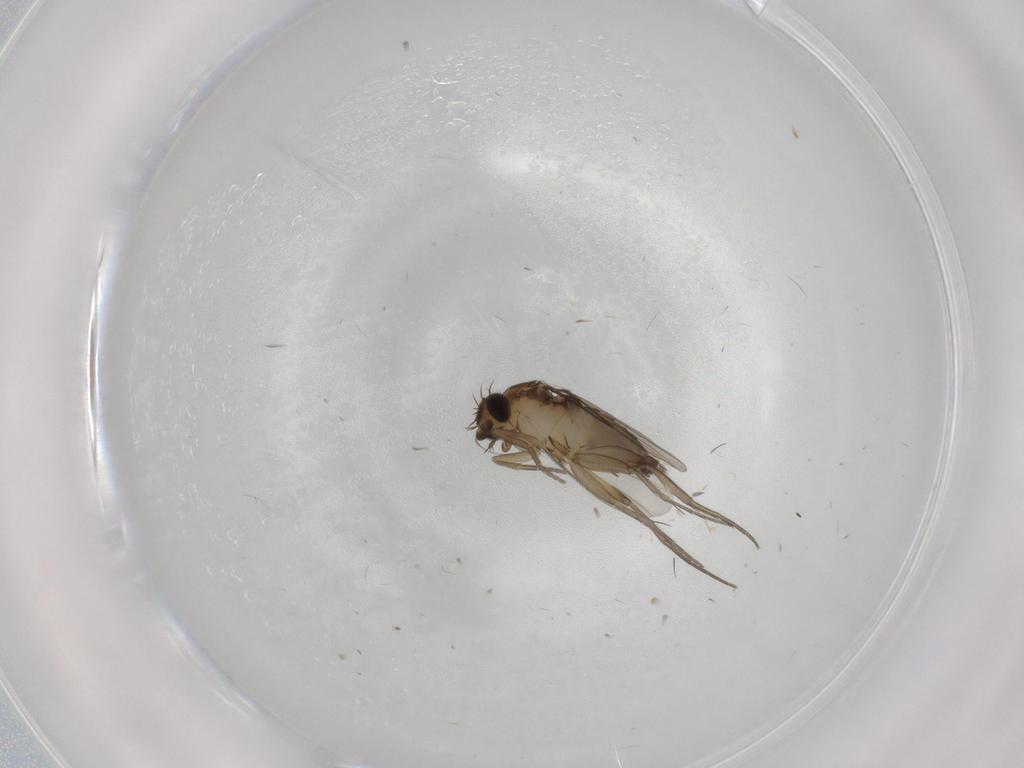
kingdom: Animalia
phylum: Arthropoda
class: Insecta
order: Diptera
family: Phoridae
